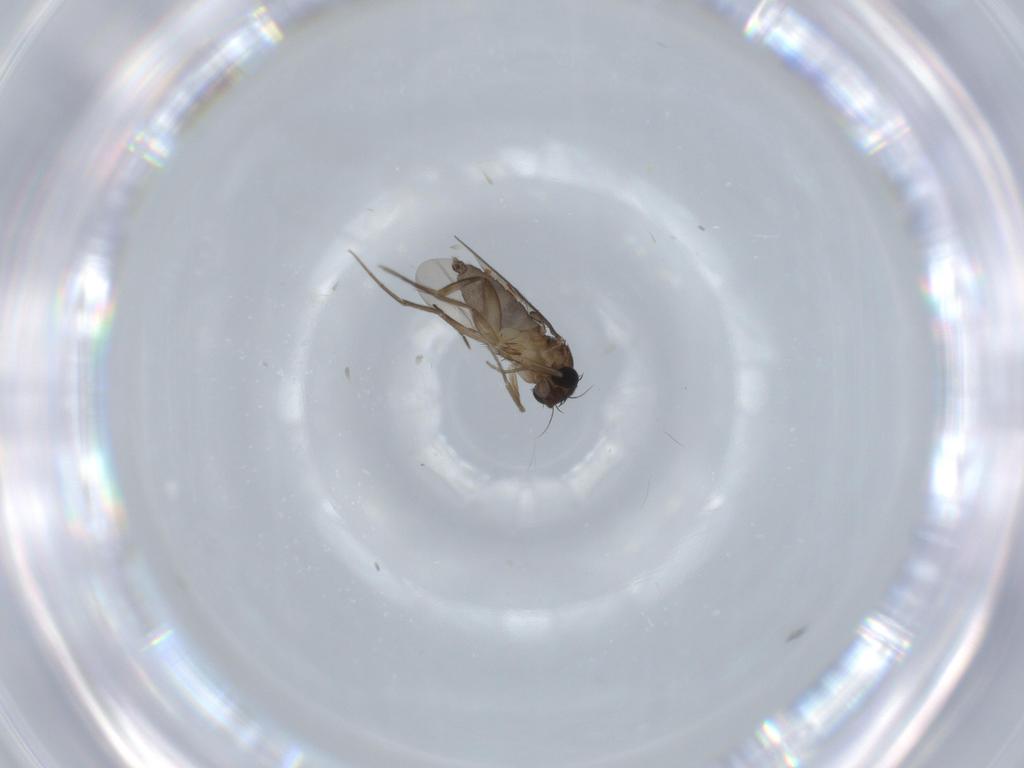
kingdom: Animalia
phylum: Arthropoda
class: Insecta
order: Diptera
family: Phoridae
